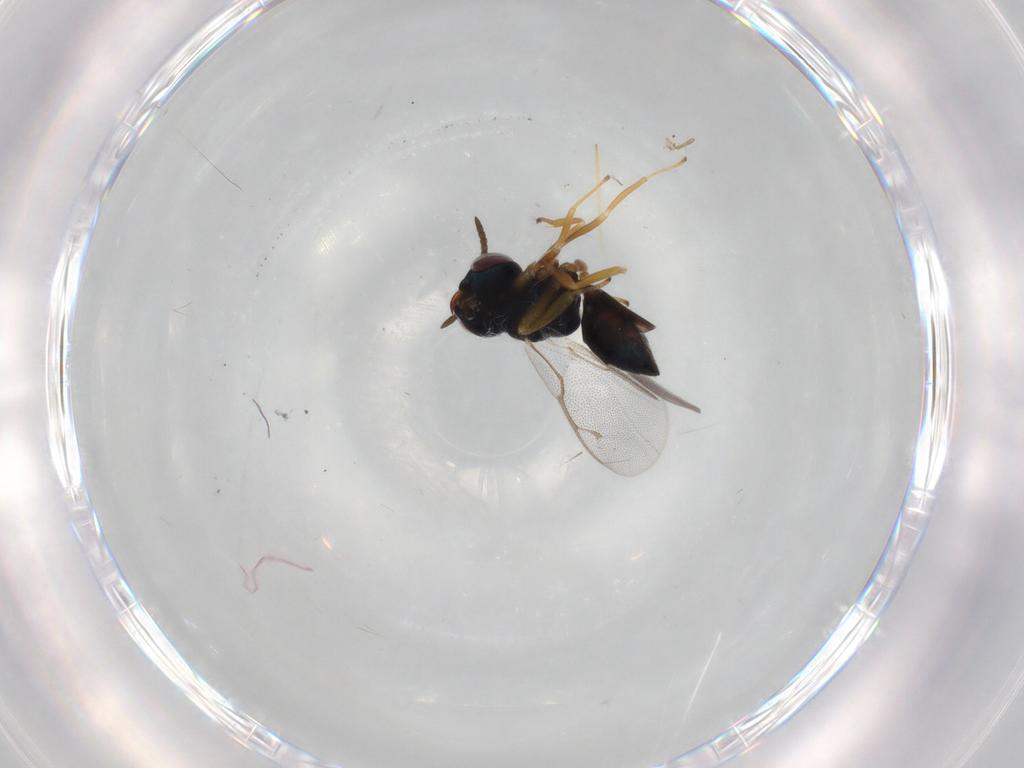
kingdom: Animalia
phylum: Arthropoda
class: Insecta
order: Hymenoptera
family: Pteromalidae
